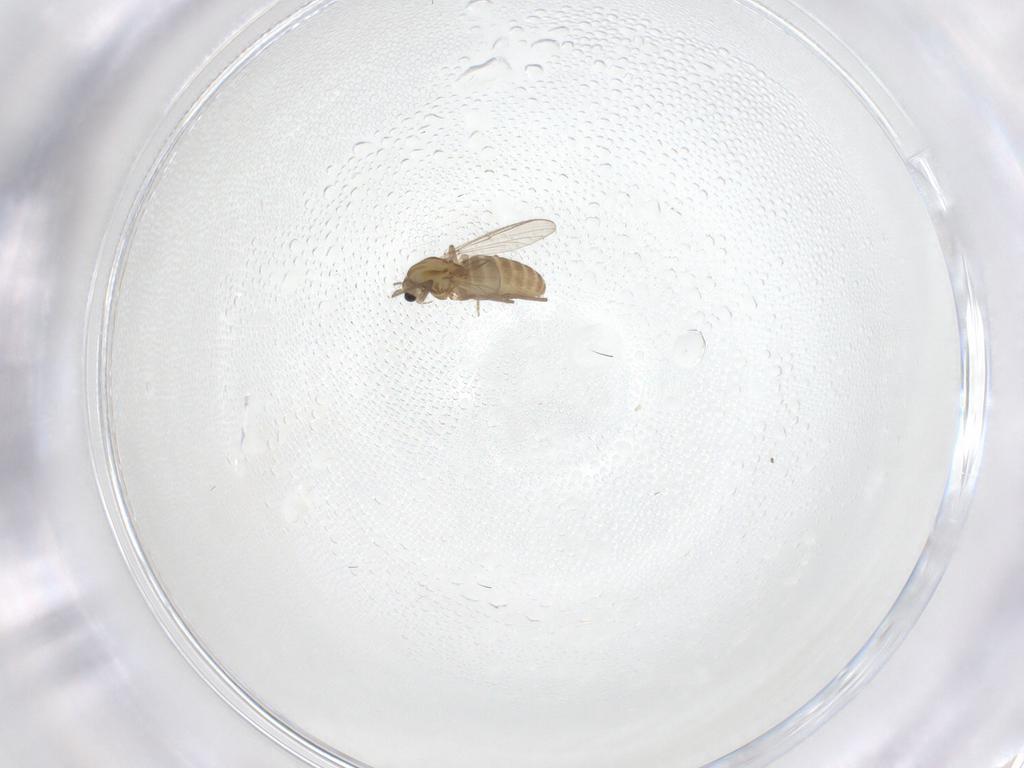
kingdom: Animalia
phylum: Arthropoda
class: Insecta
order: Diptera
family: Chironomidae
